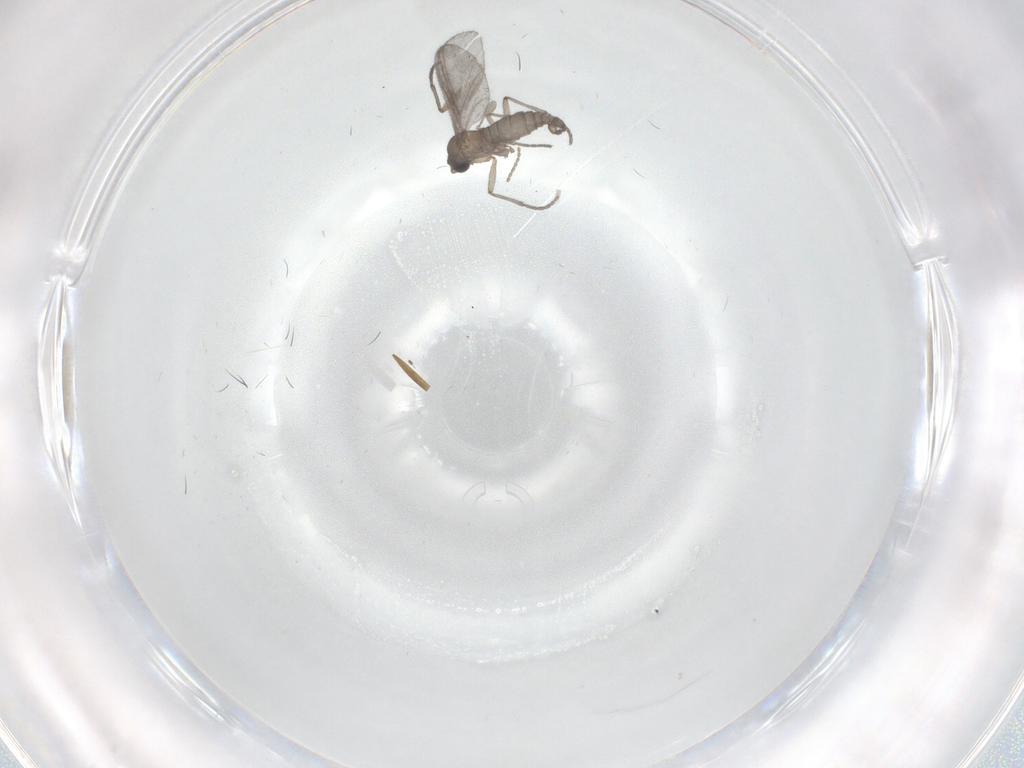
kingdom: Animalia
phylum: Arthropoda
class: Insecta
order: Diptera
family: Sciaridae
